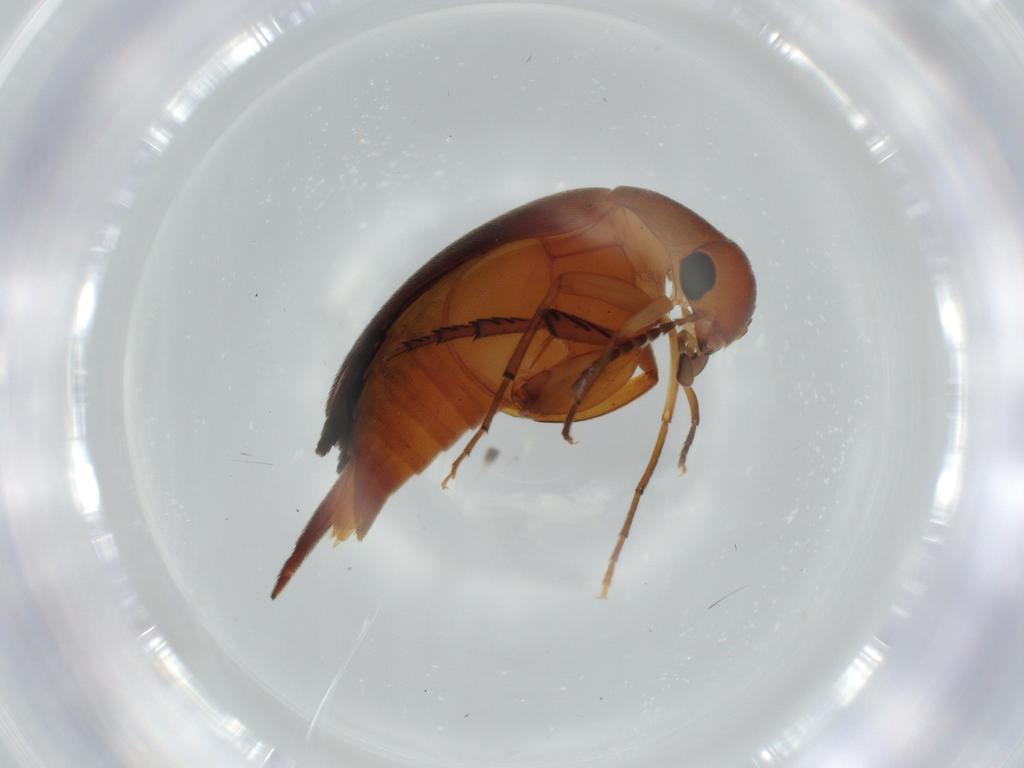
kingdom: Animalia
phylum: Arthropoda
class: Insecta
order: Coleoptera
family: Mordellidae
